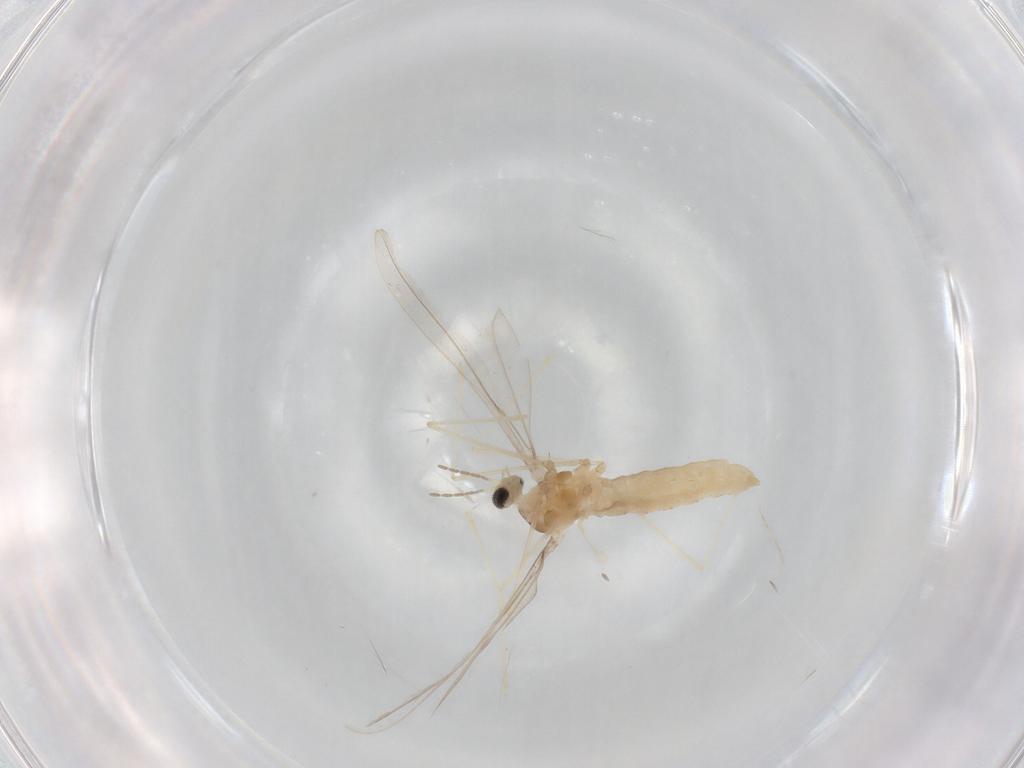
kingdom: Animalia
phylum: Arthropoda
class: Insecta
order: Diptera
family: Cecidomyiidae
